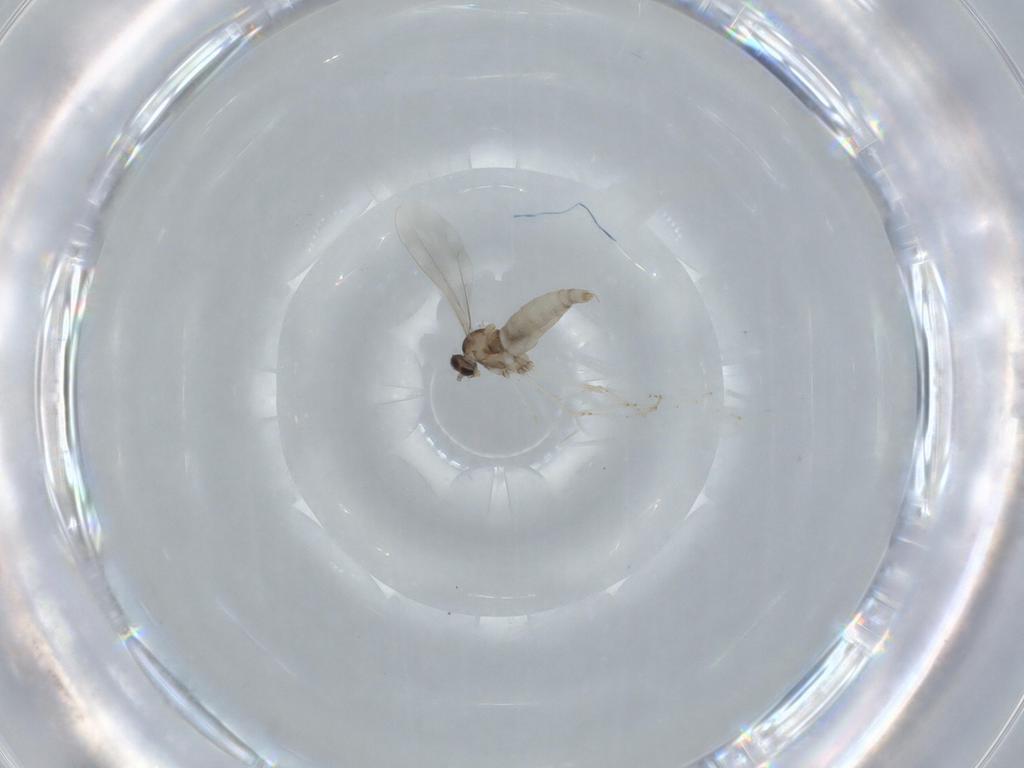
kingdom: Animalia
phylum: Arthropoda
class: Insecta
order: Diptera
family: Cecidomyiidae
